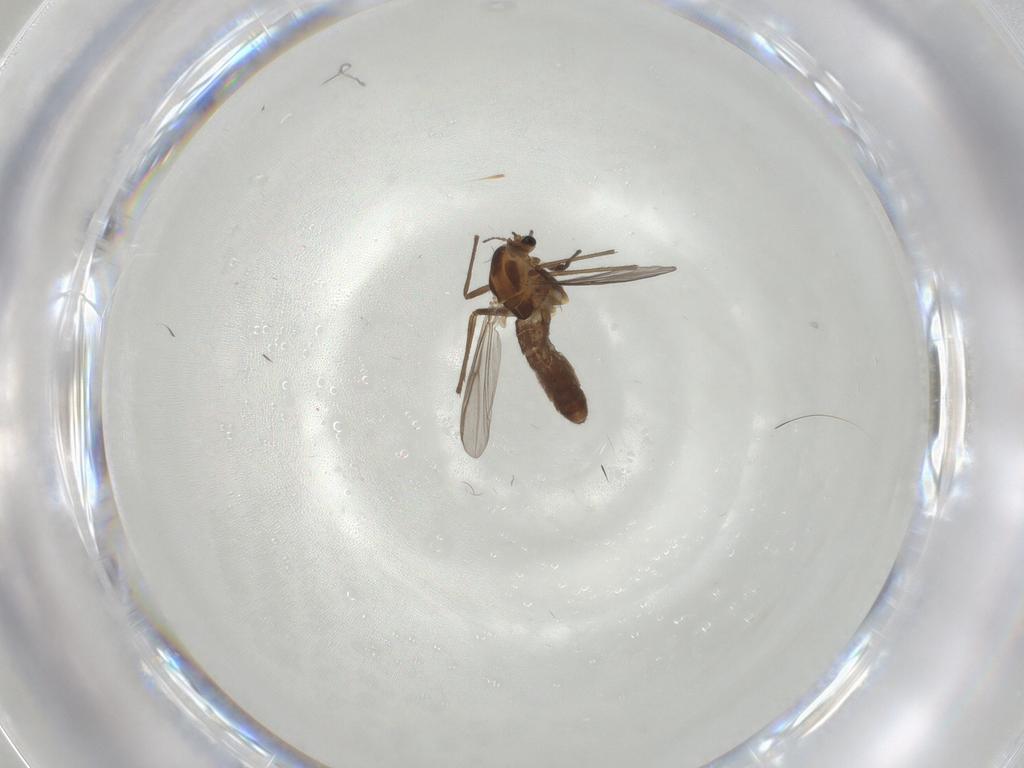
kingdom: Animalia
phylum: Arthropoda
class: Insecta
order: Diptera
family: Chironomidae
